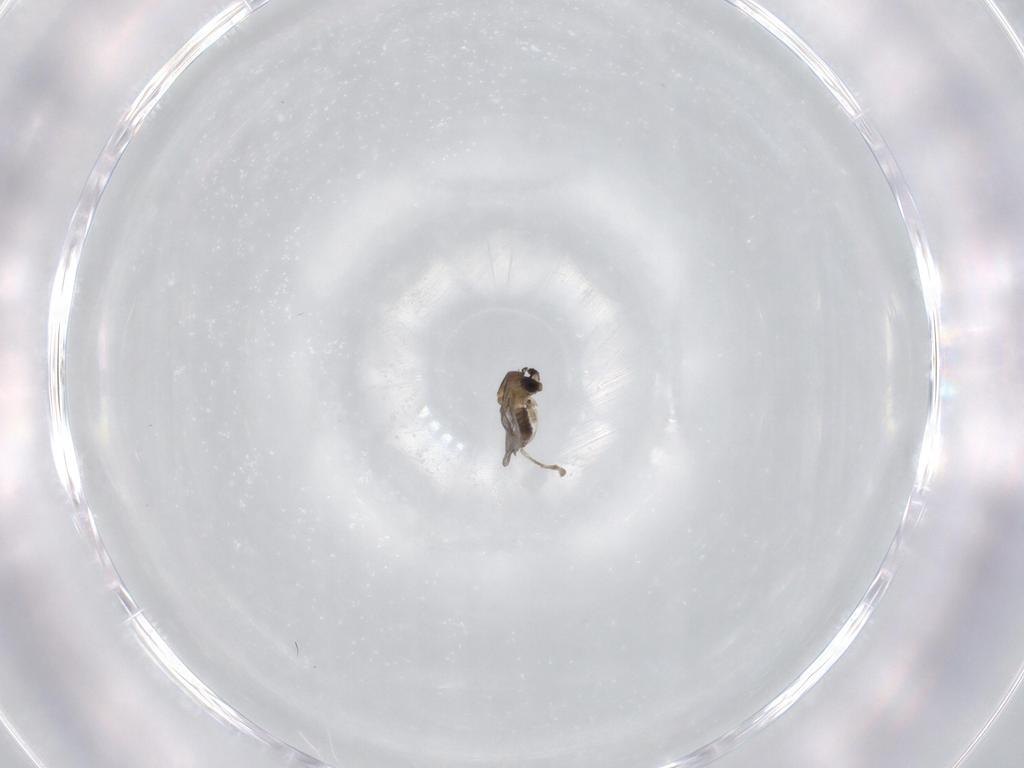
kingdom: Animalia
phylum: Arthropoda
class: Insecta
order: Diptera
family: Cecidomyiidae
